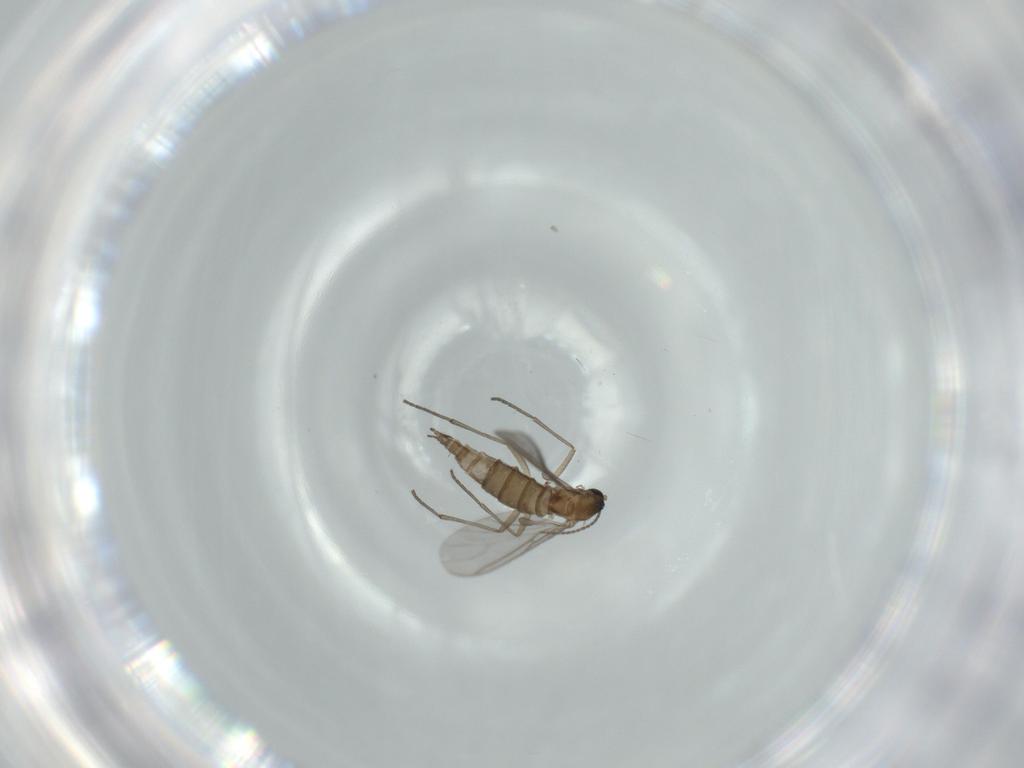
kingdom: Animalia
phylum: Arthropoda
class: Insecta
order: Diptera
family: Sciaridae
